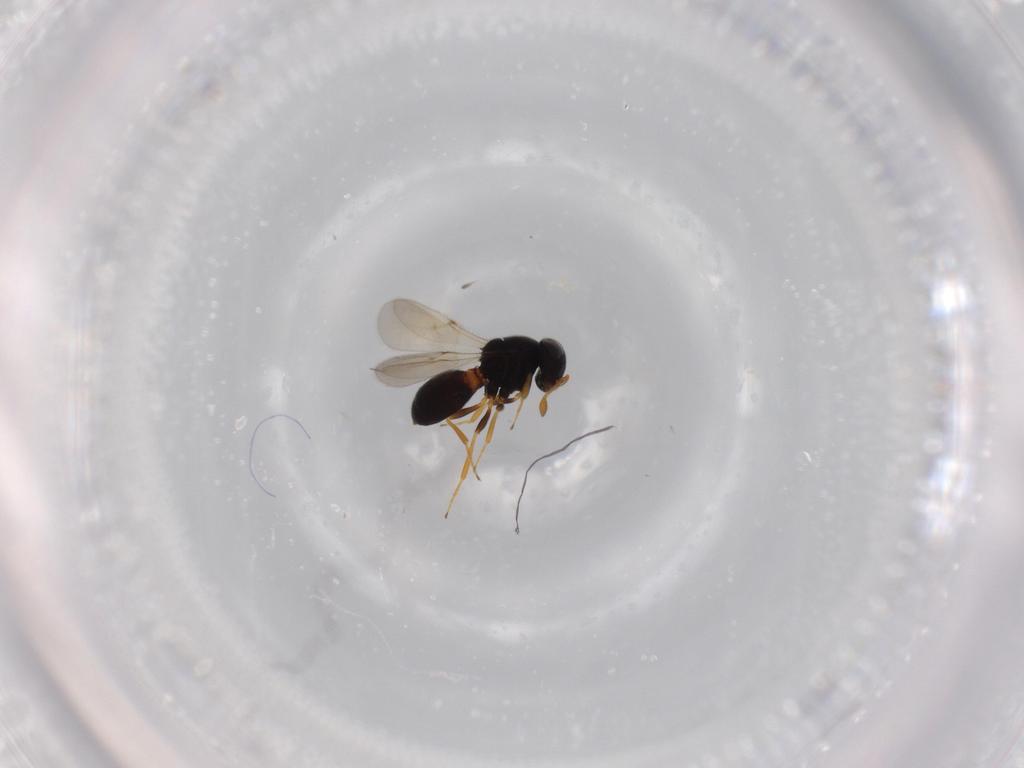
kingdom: Animalia
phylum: Arthropoda
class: Insecta
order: Hymenoptera
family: Scelionidae
